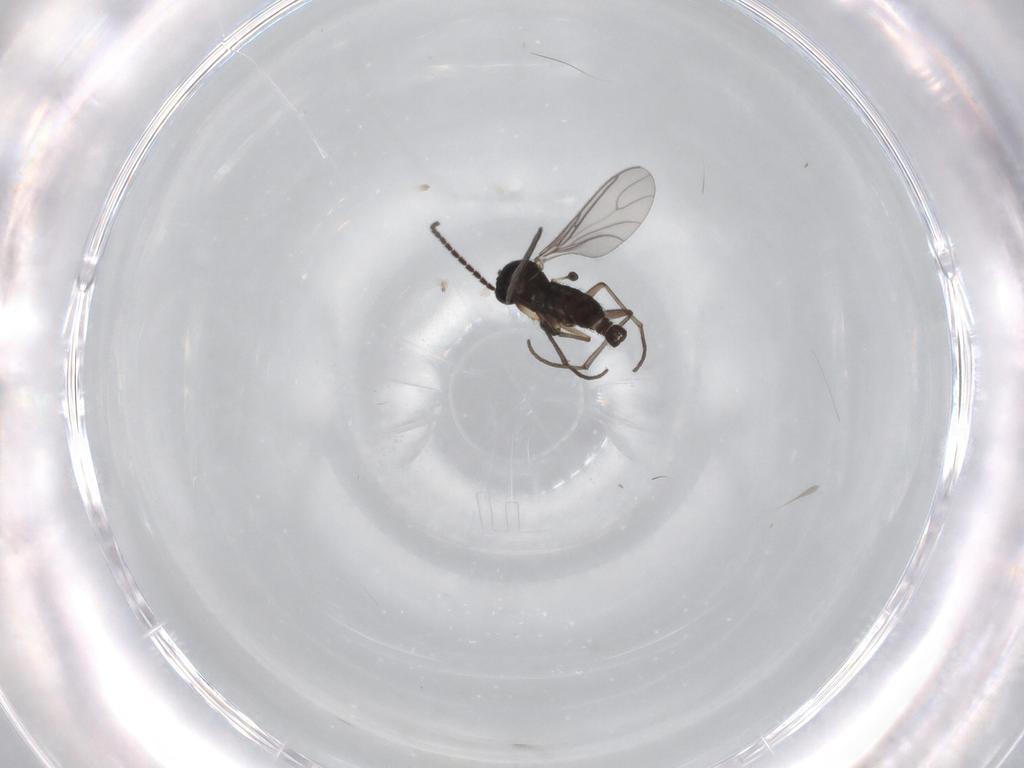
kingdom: Animalia
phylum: Arthropoda
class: Insecta
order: Diptera
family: Sciaridae
